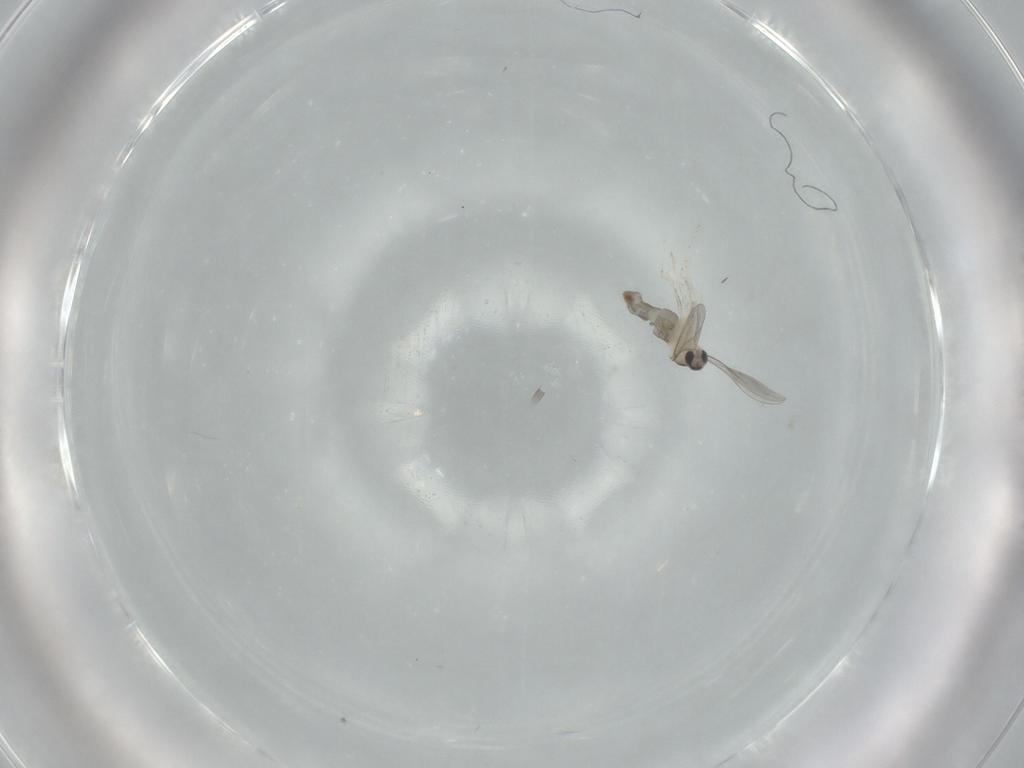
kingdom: Animalia
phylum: Arthropoda
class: Insecta
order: Diptera
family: Cecidomyiidae
